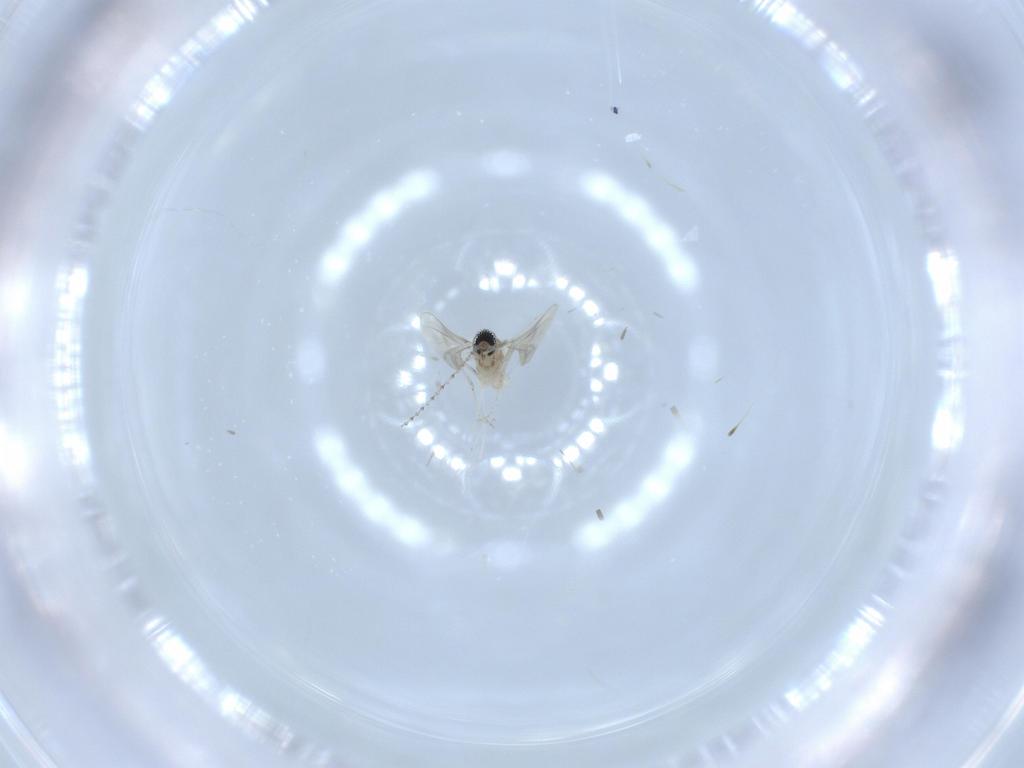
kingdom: Animalia
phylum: Arthropoda
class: Insecta
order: Diptera
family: Cecidomyiidae
